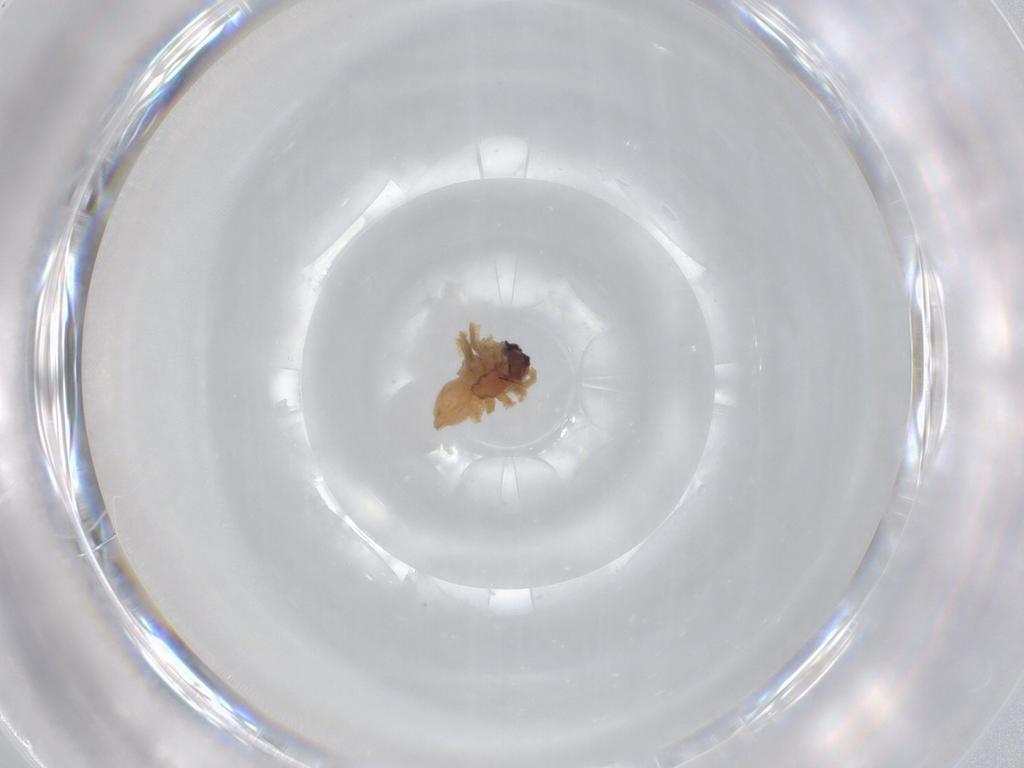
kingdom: Animalia
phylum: Arthropoda
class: Arachnida
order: Araneae
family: Lycosidae
